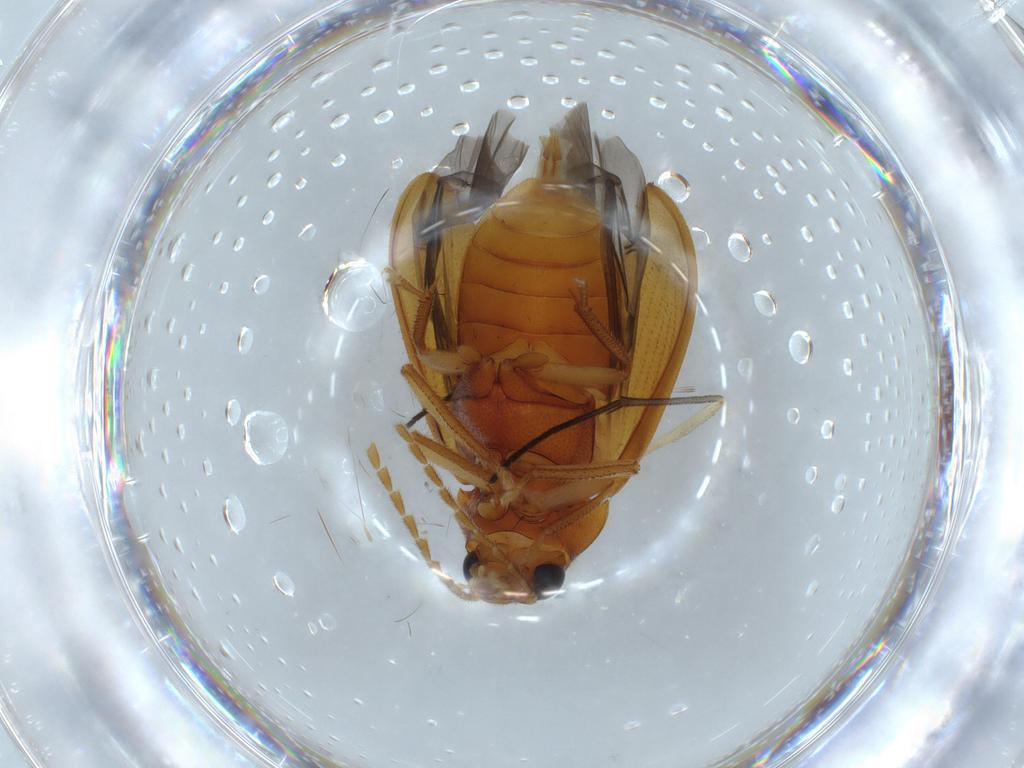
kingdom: Animalia
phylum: Arthropoda
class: Insecta
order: Coleoptera
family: Ptilodactylidae
